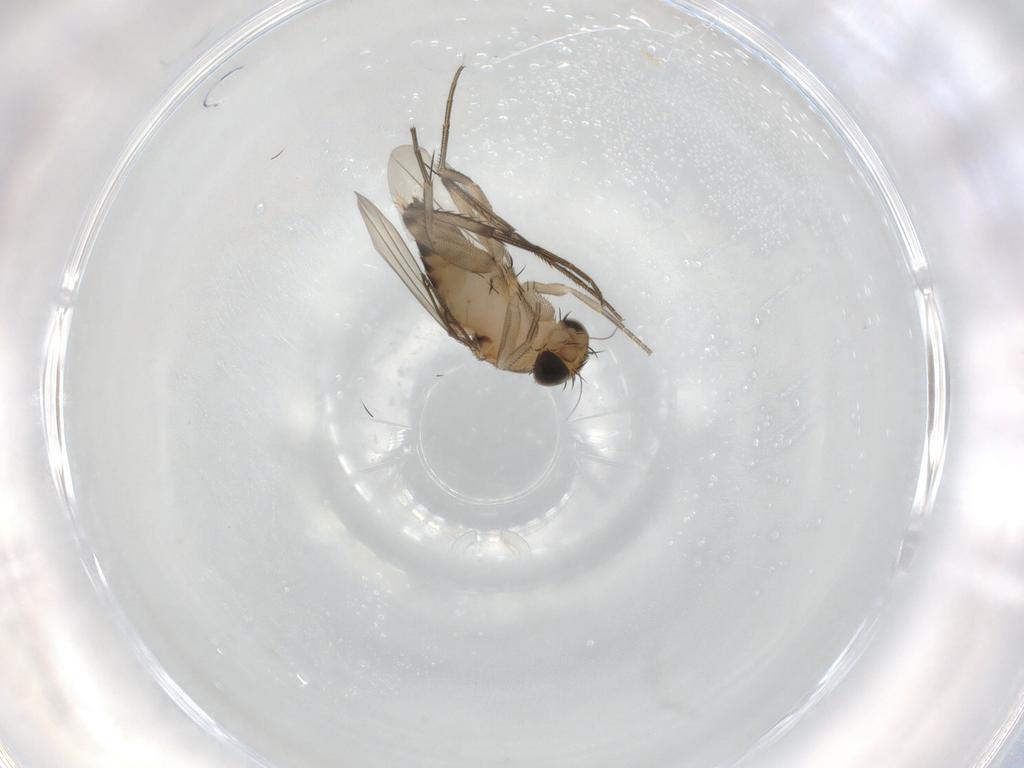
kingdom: Animalia
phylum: Arthropoda
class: Insecta
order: Diptera
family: Phoridae
